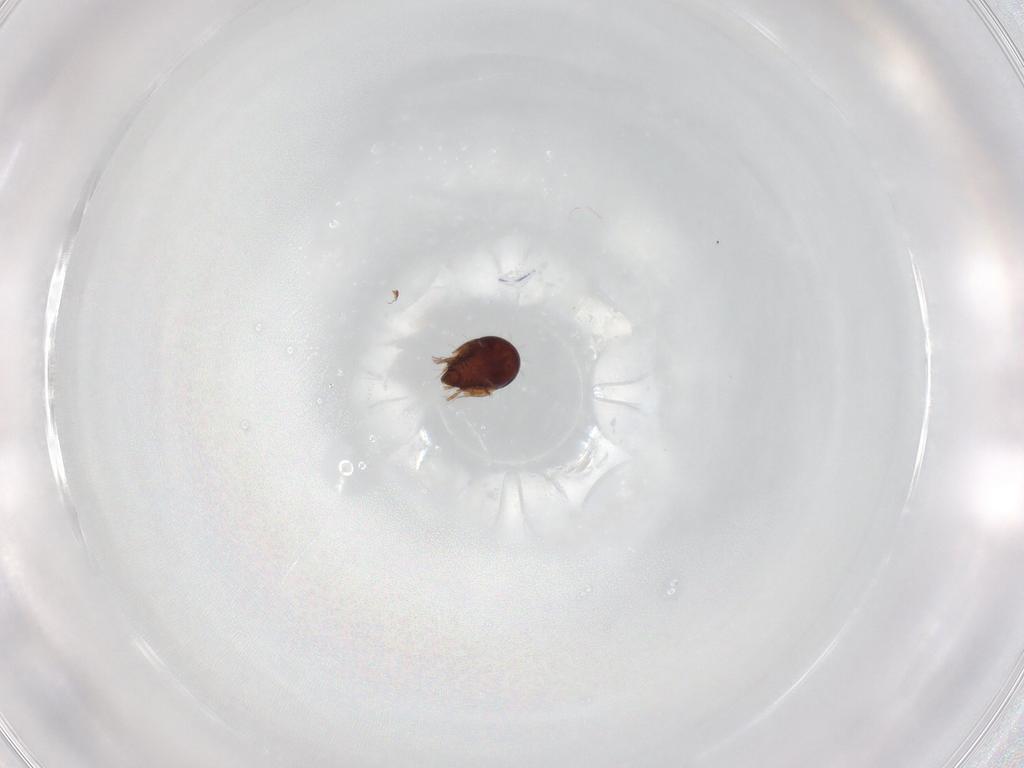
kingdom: Animalia
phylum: Arthropoda
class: Arachnida
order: Sarcoptiformes
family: Humerobatidae
